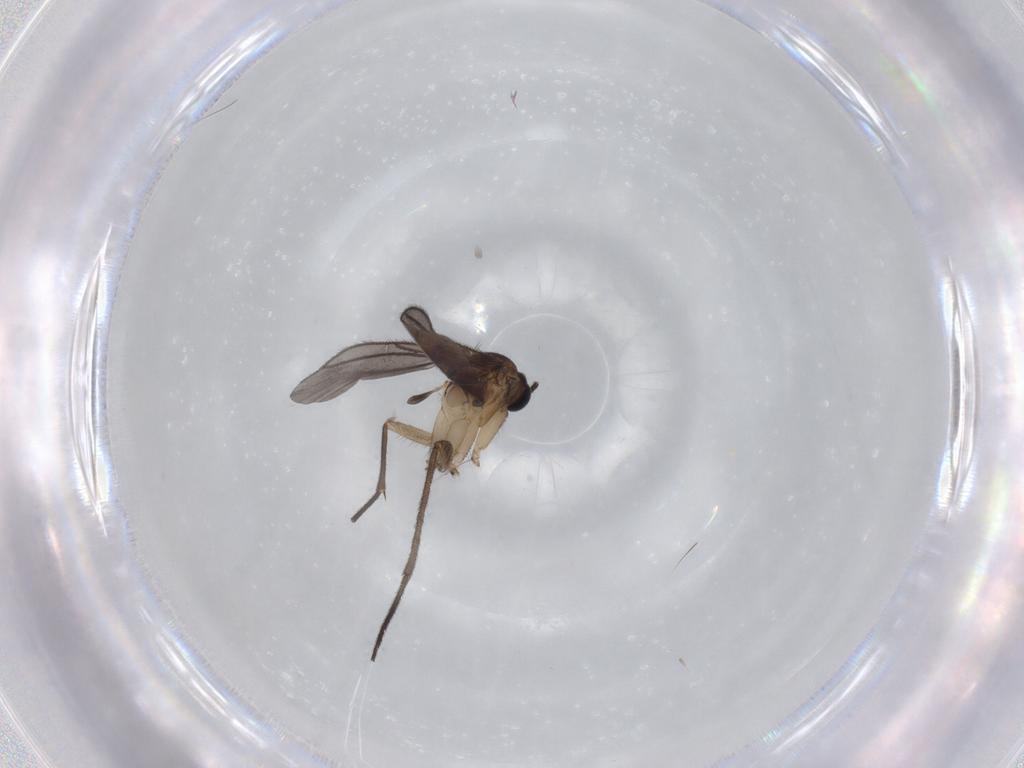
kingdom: Animalia
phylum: Arthropoda
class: Insecta
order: Diptera
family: Sciaridae
